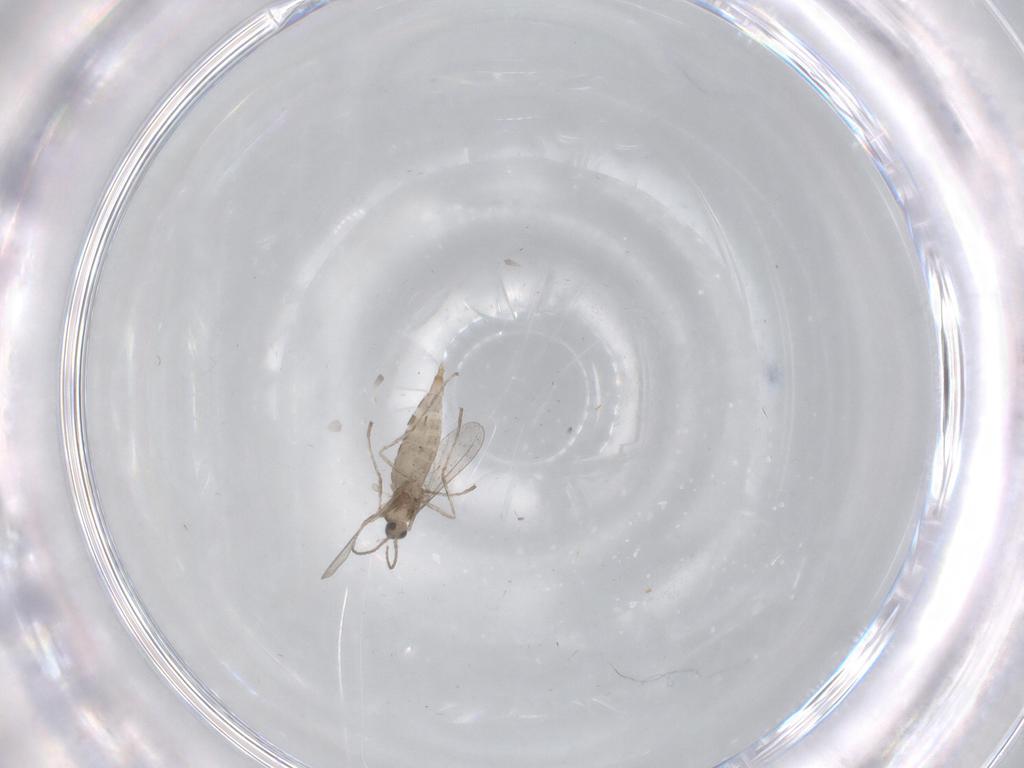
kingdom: Animalia
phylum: Arthropoda
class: Insecta
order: Diptera
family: Ceratopogonidae
